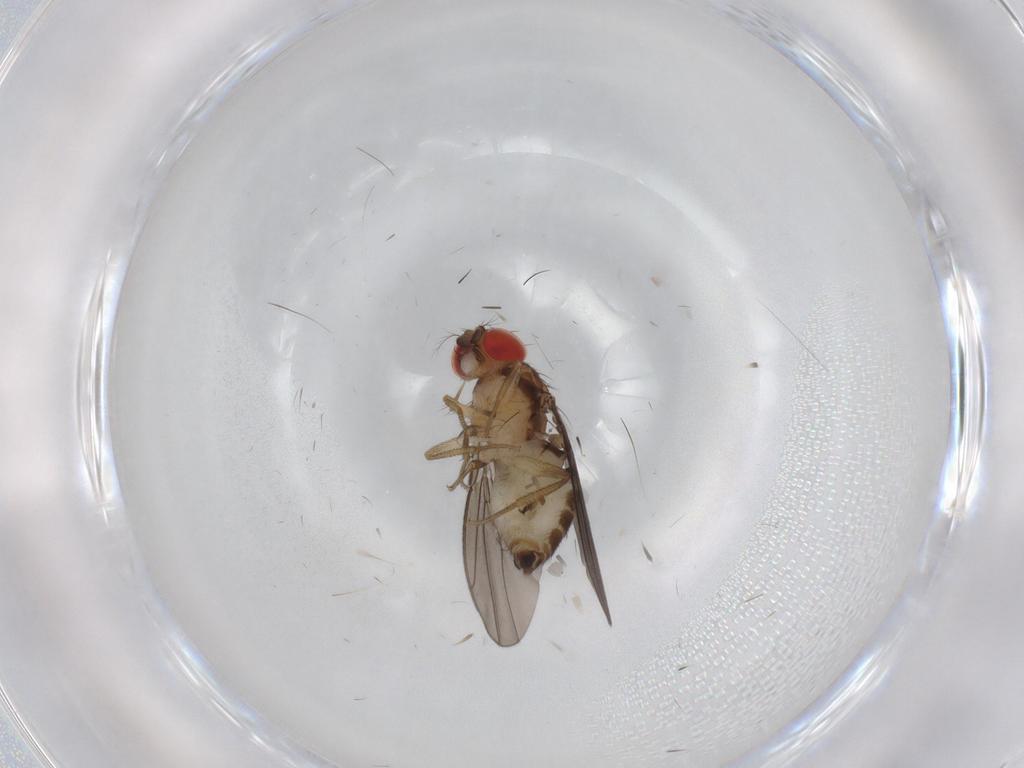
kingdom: Animalia
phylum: Arthropoda
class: Insecta
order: Diptera
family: Drosophilidae
